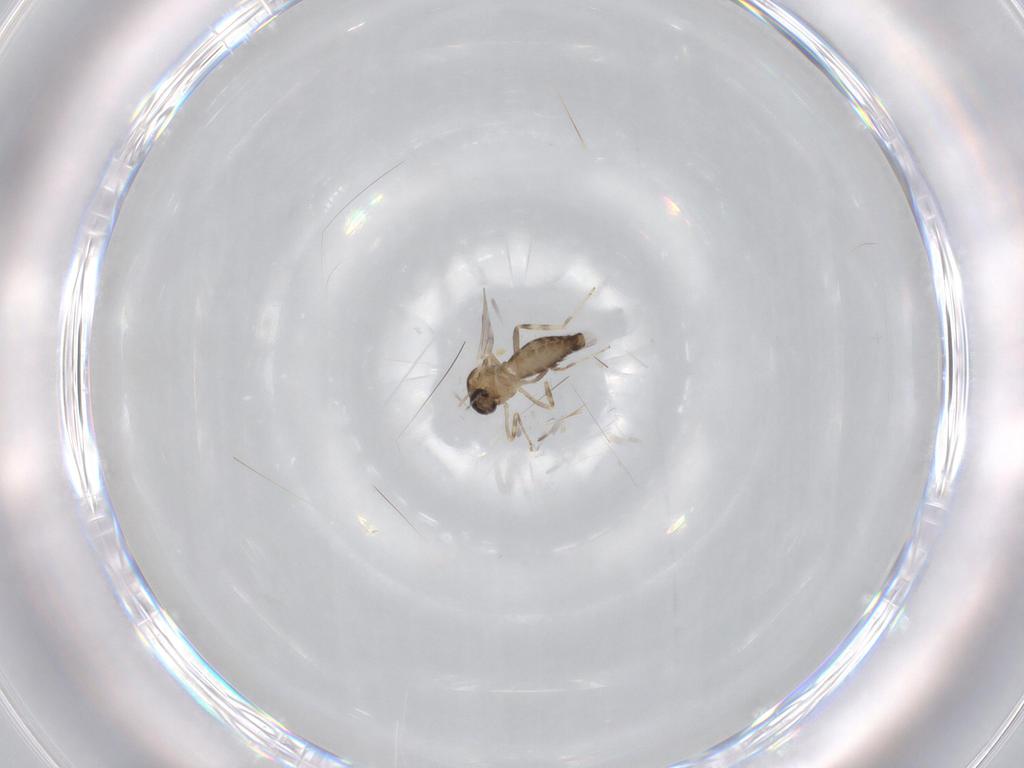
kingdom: Animalia
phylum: Arthropoda
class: Insecta
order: Diptera
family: Ceratopogonidae
